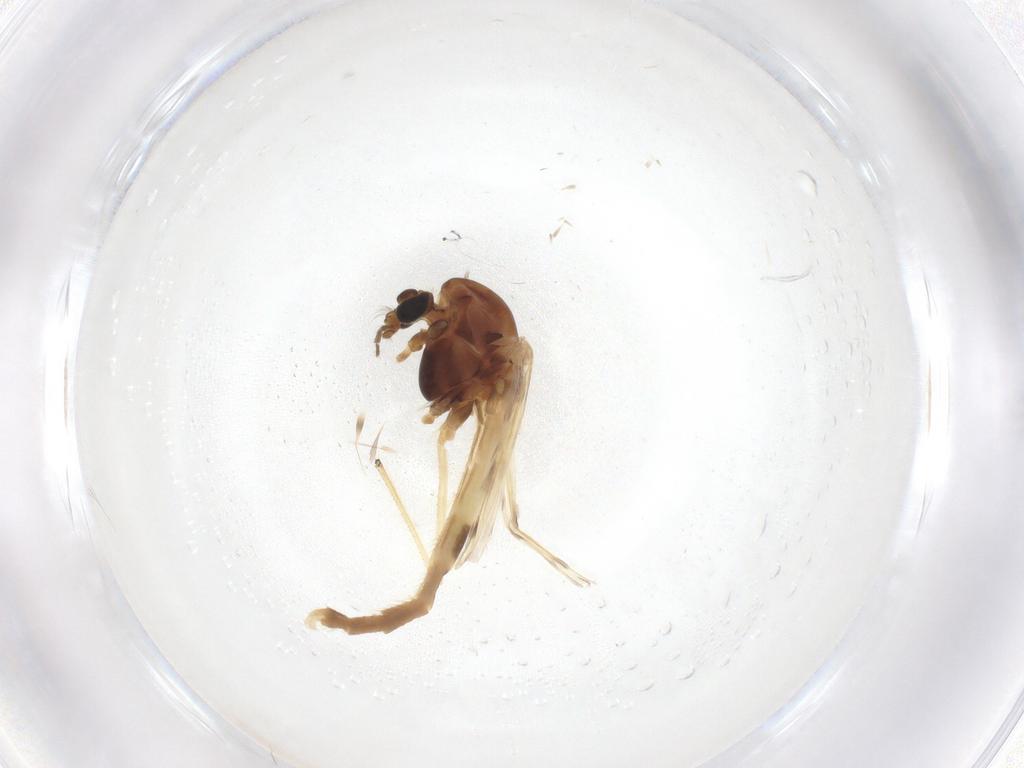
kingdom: Animalia
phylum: Arthropoda
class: Insecta
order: Diptera
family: Chironomidae
